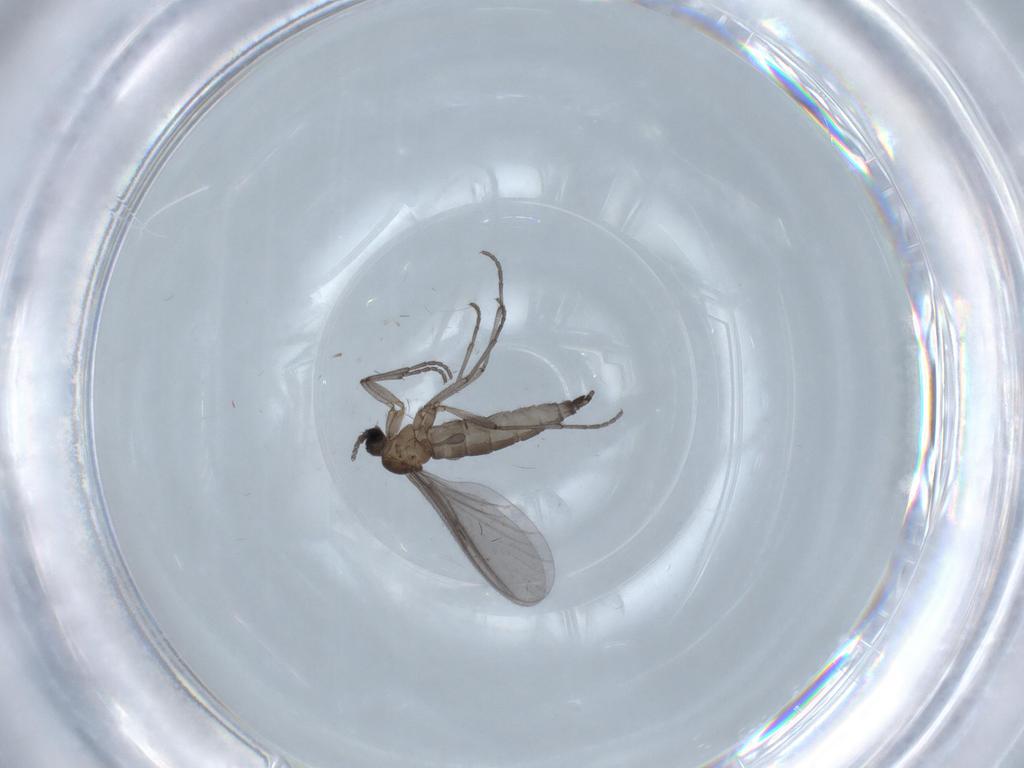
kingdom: Animalia
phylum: Arthropoda
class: Insecta
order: Diptera
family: Sciaridae
